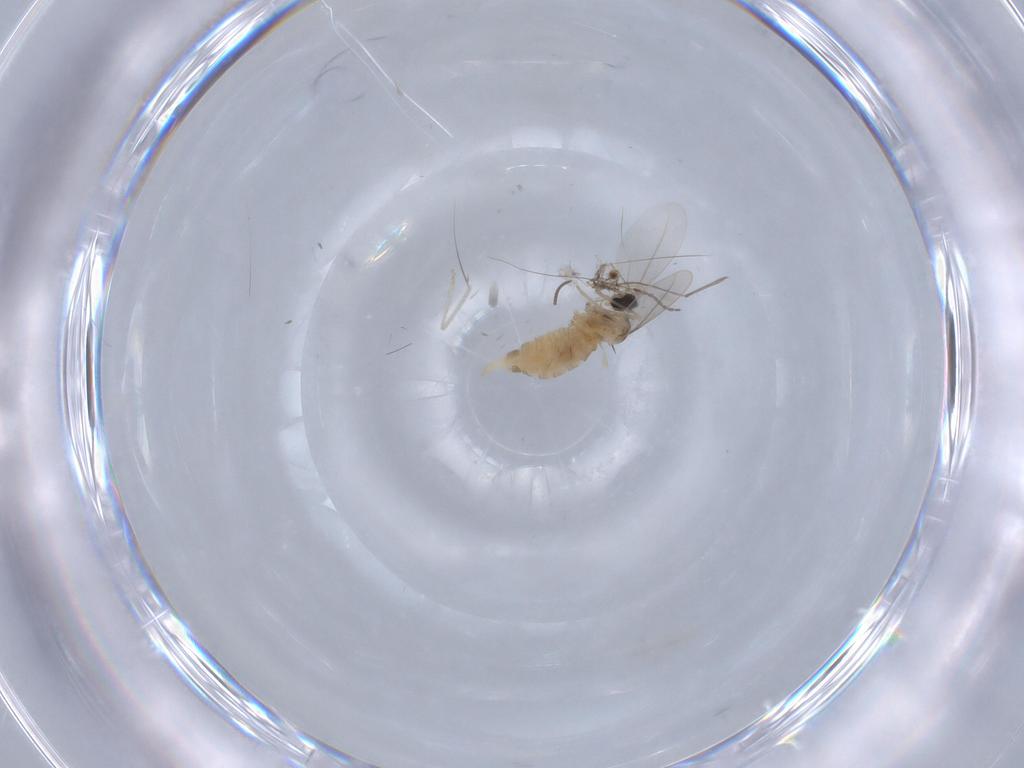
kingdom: Animalia
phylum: Arthropoda
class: Insecta
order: Diptera
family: Cecidomyiidae
